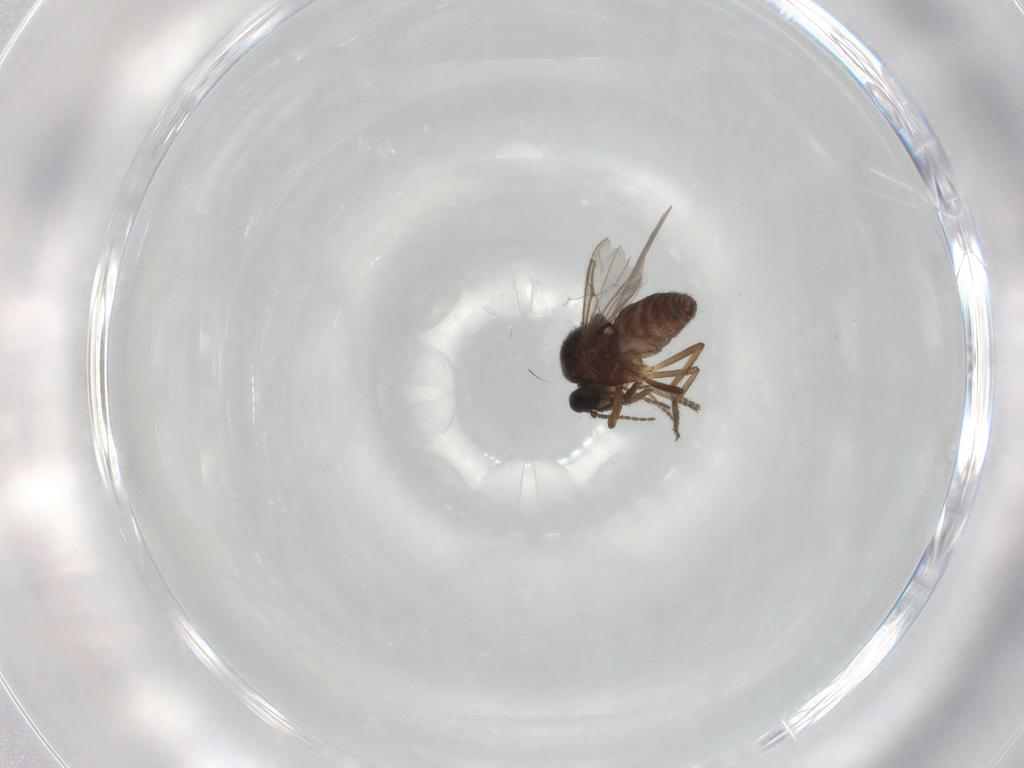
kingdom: Animalia
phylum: Arthropoda
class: Insecta
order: Diptera
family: Ceratopogonidae
